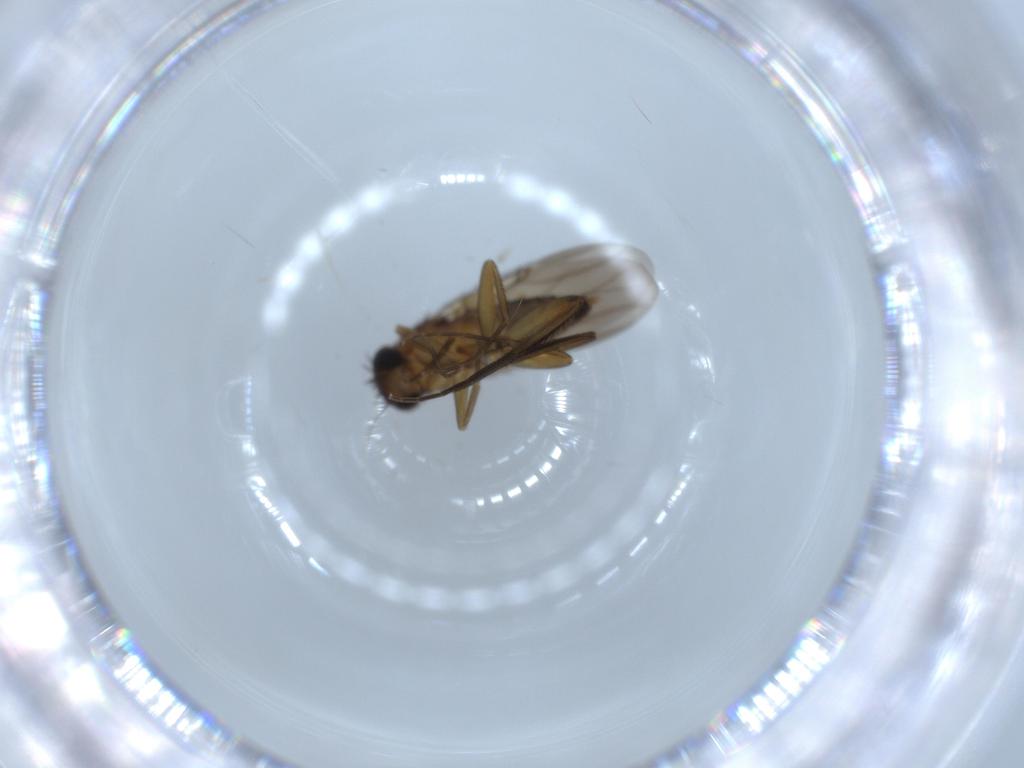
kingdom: Animalia
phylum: Arthropoda
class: Insecta
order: Diptera
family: Phoridae
